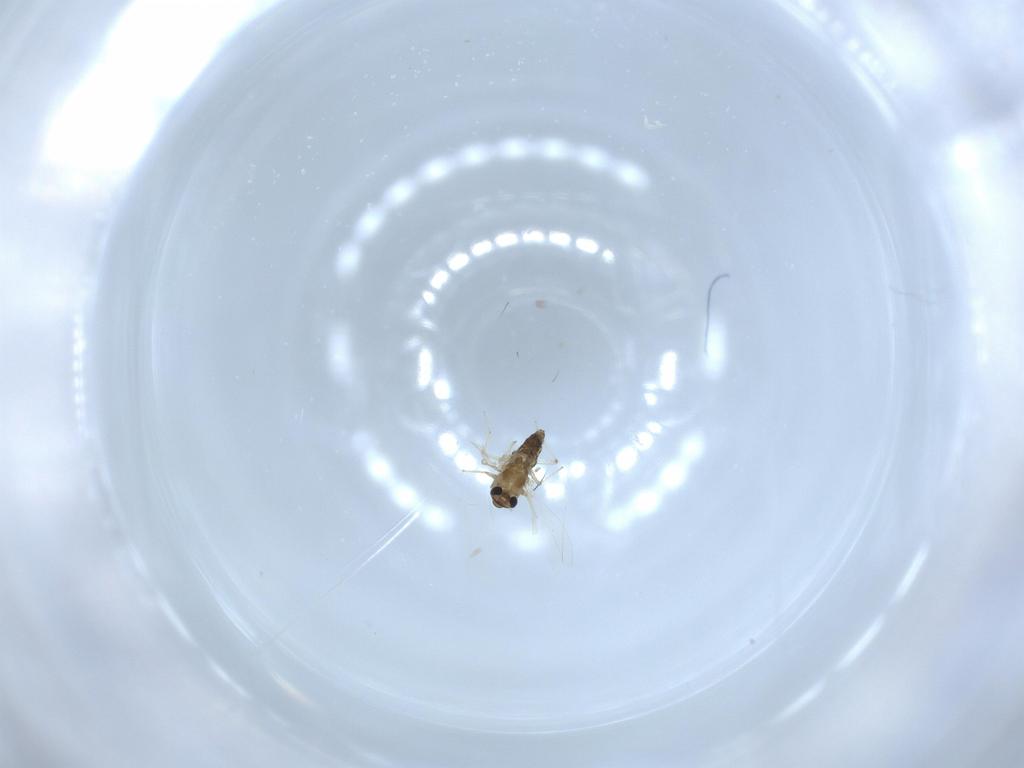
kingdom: Animalia
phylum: Arthropoda
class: Insecta
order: Diptera
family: Chironomidae
